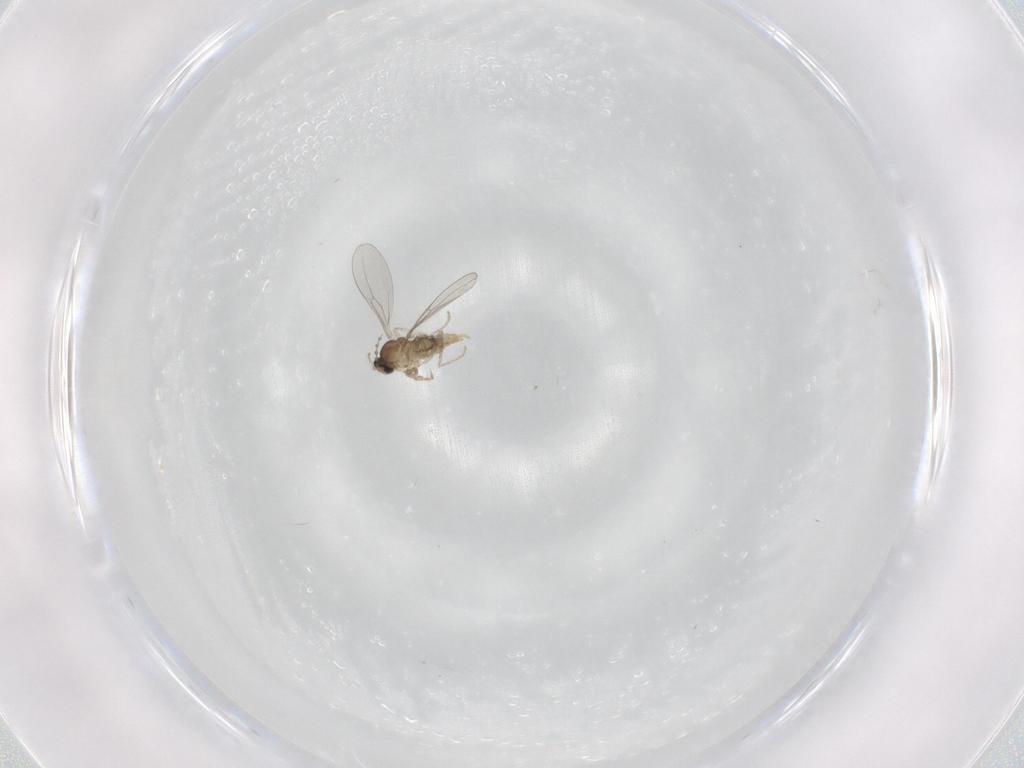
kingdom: Animalia
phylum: Arthropoda
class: Insecta
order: Diptera
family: Cecidomyiidae
